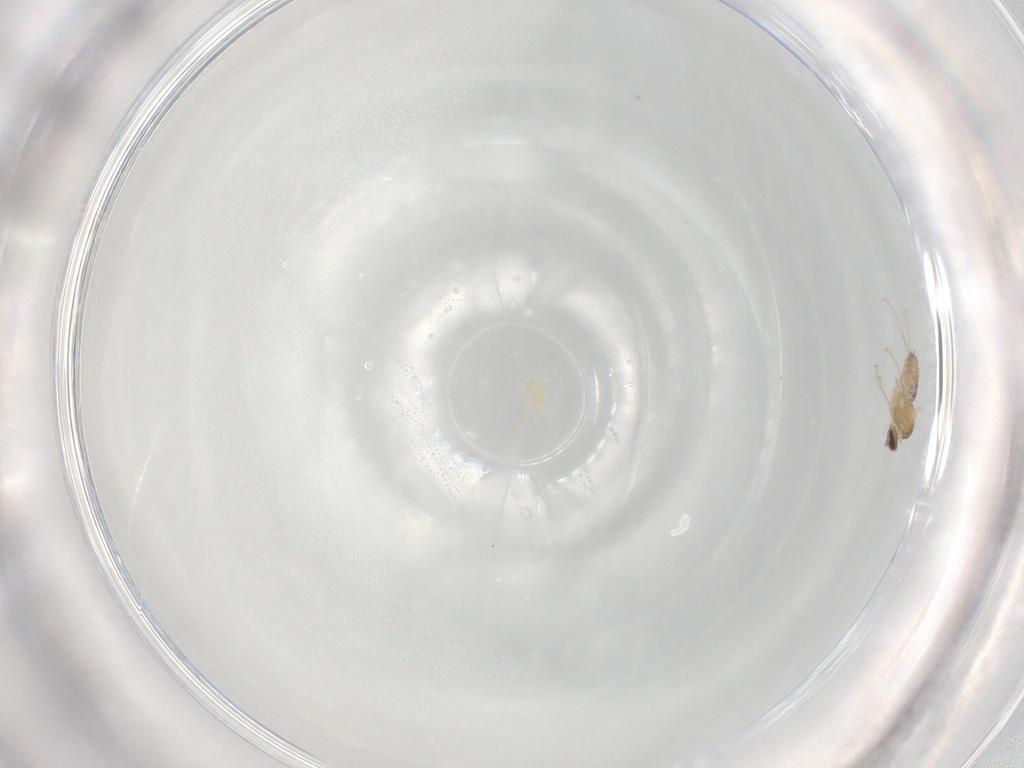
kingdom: Animalia
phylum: Arthropoda
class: Insecta
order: Diptera
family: Cecidomyiidae
